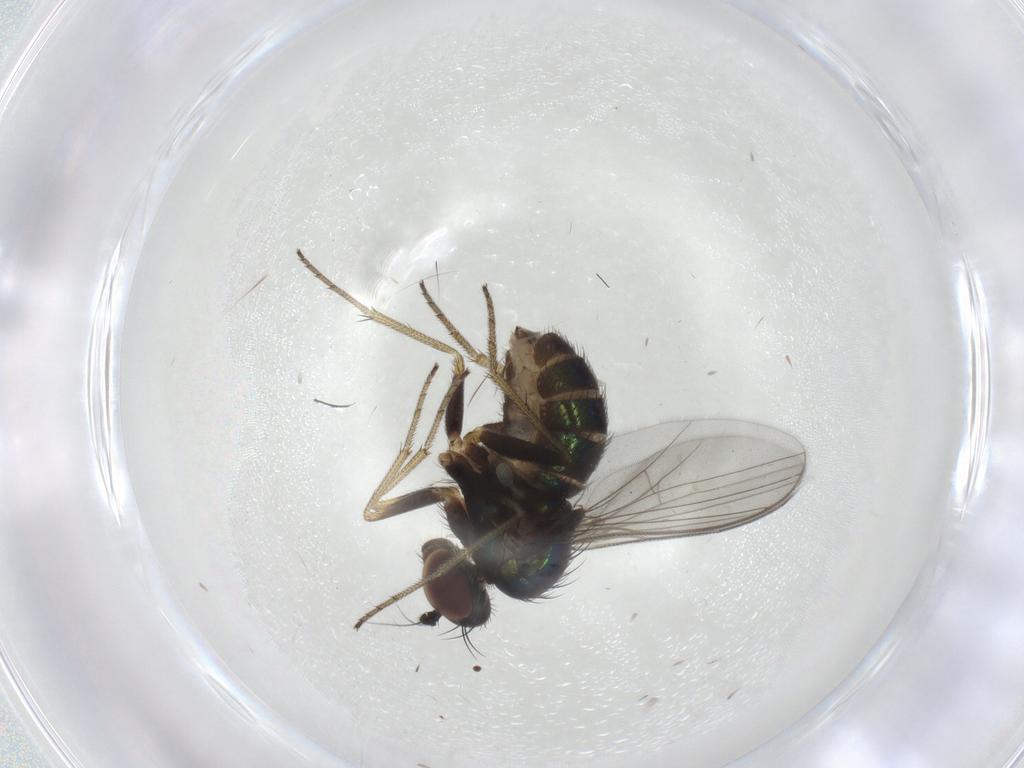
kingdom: Animalia
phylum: Arthropoda
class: Insecta
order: Diptera
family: Dolichopodidae
